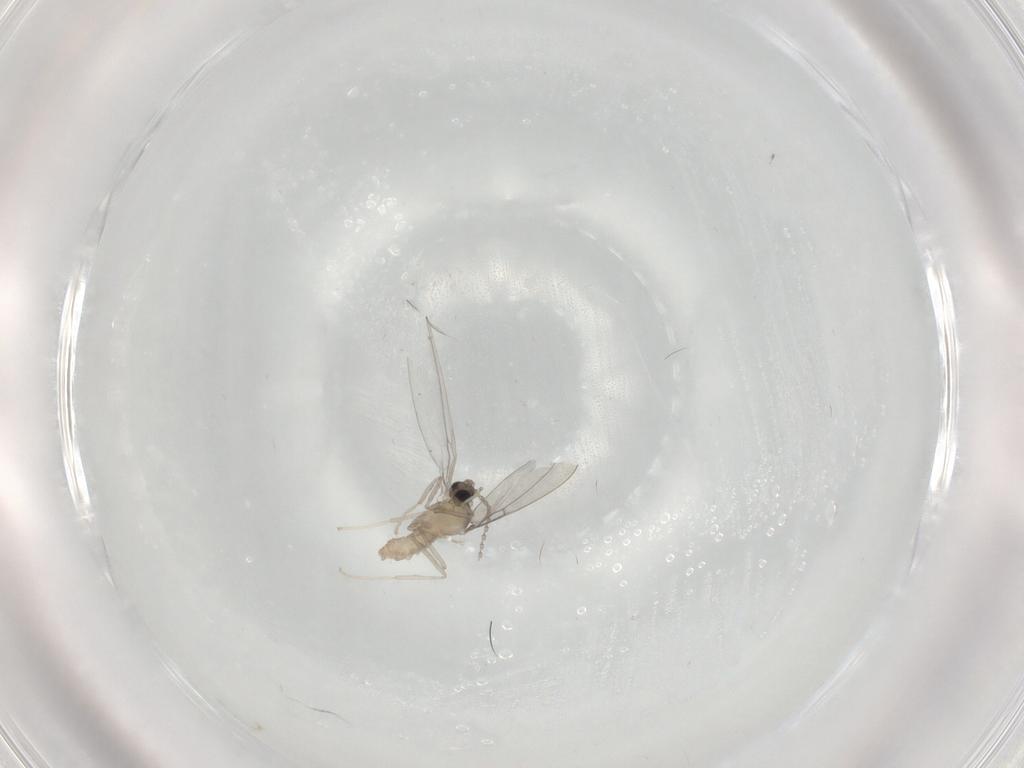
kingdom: Animalia
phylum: Arthropoda
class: Insecta
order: Diptera
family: Cecidomyiidae
